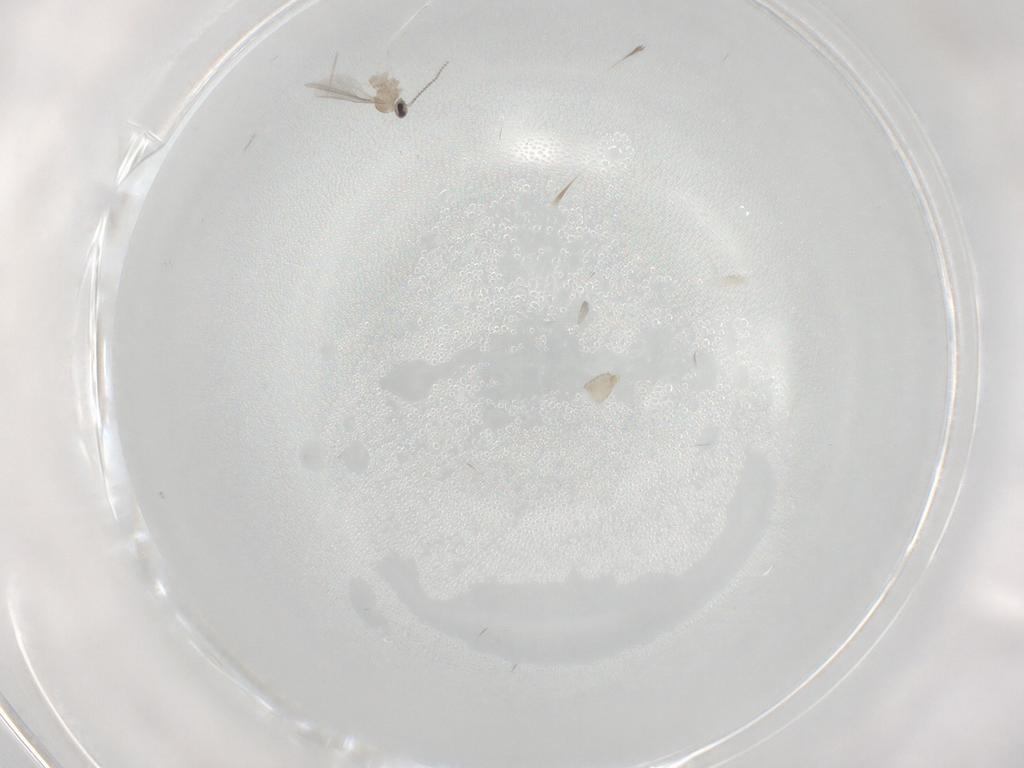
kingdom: Animalia
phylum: Arthropoda
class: Insecta
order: Diptera
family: Cecidomyiidae
